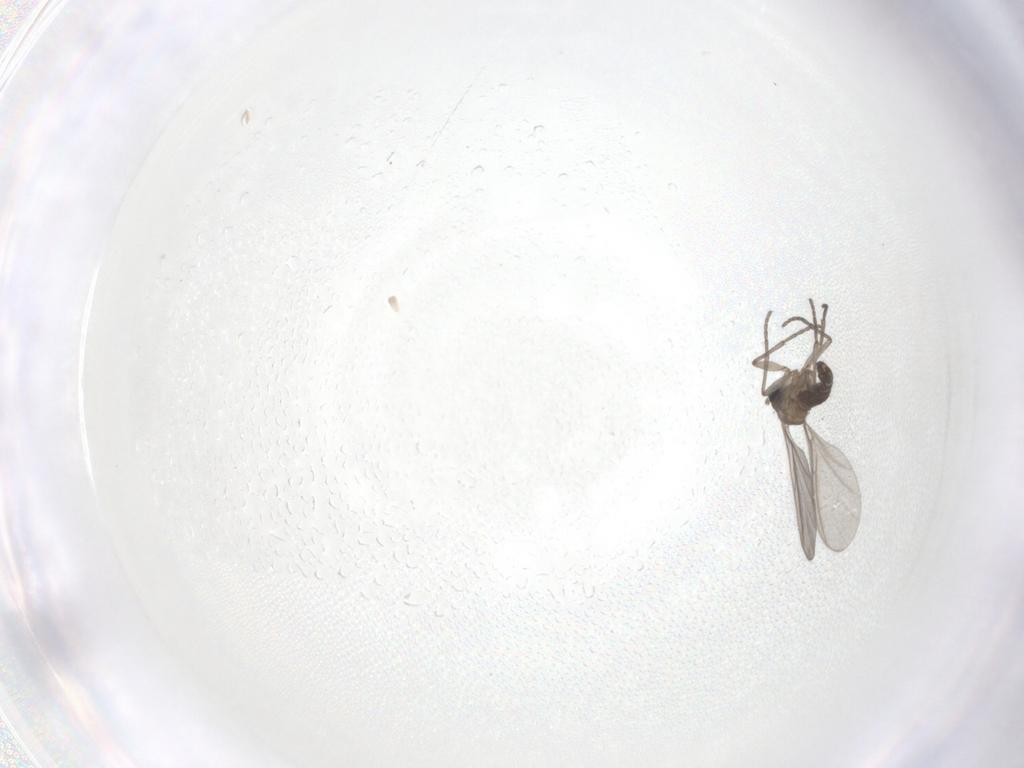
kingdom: Animalia
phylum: Arthropoda
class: Insecta
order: Diptera
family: Sciaridae
